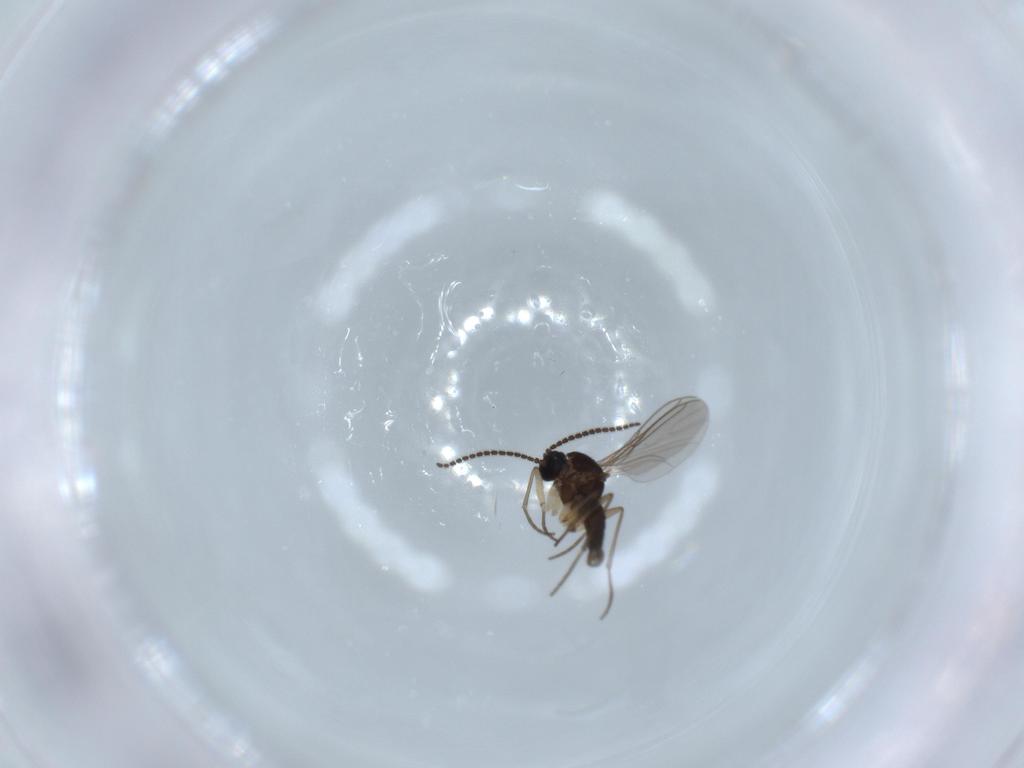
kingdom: Animalia
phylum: Arthropoda
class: Insecta
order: Diptera
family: Sciaridae
